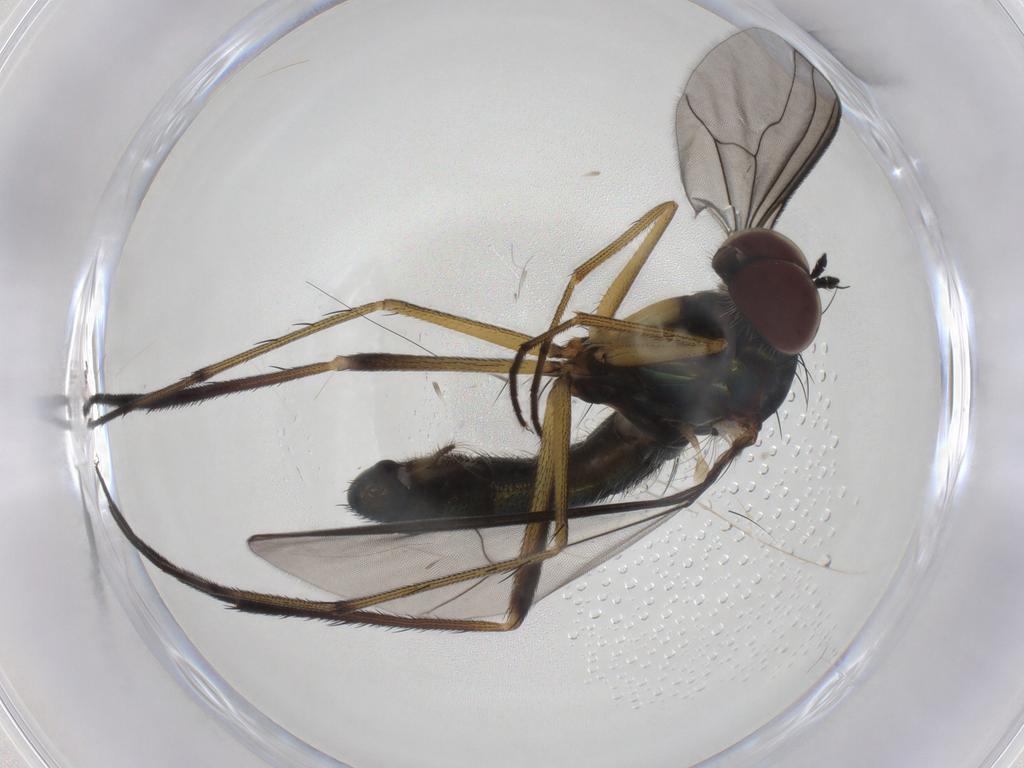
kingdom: Animalia
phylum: Arthropoda
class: Insecta
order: Diptera
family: Dolichopodidae
